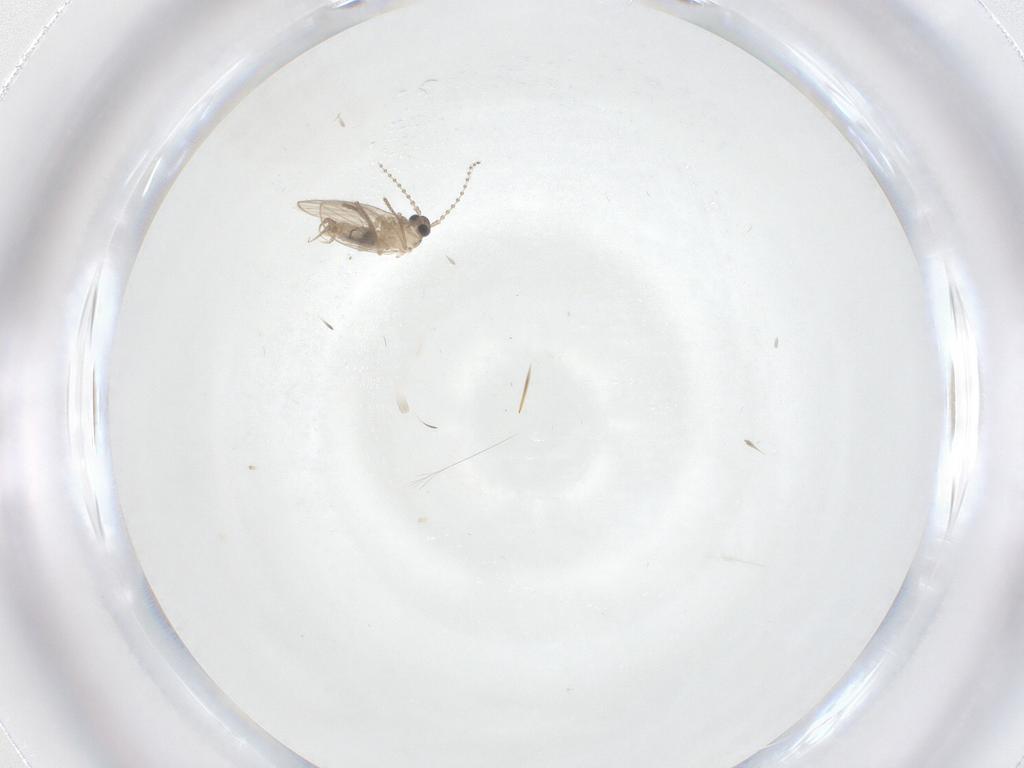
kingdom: Animalia
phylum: Arthropoda
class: Insecta
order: Diptera
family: Psychodidae
